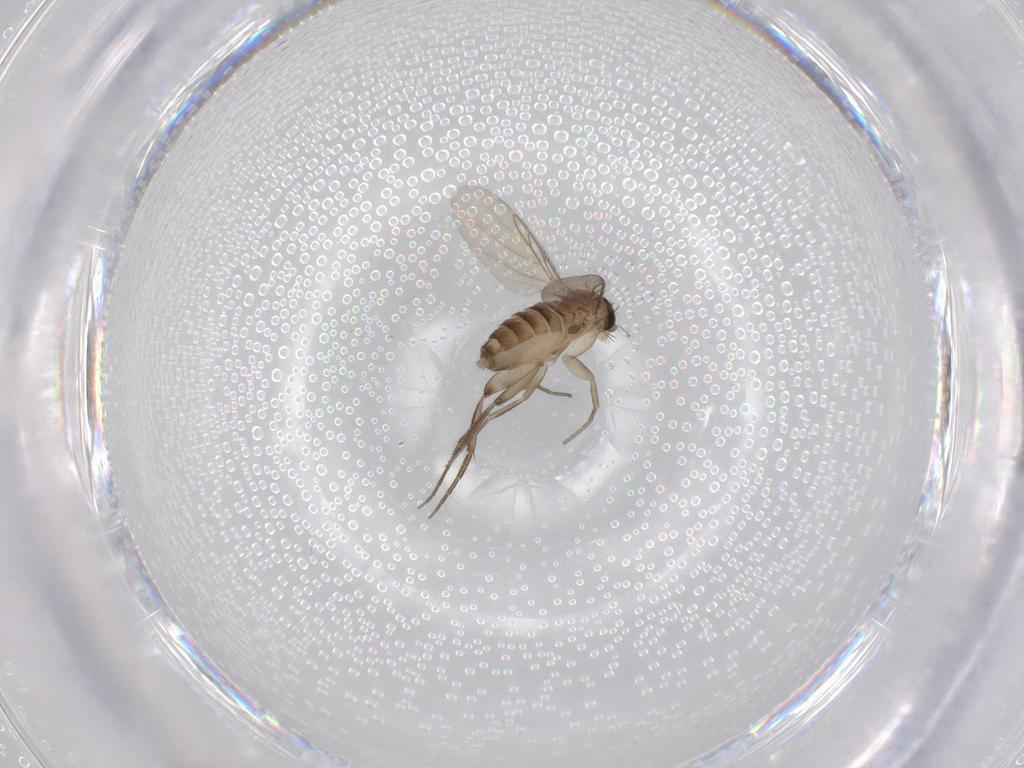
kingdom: Animalia
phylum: Arthropoda
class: Insecta
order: Diptera
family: Phoridae
